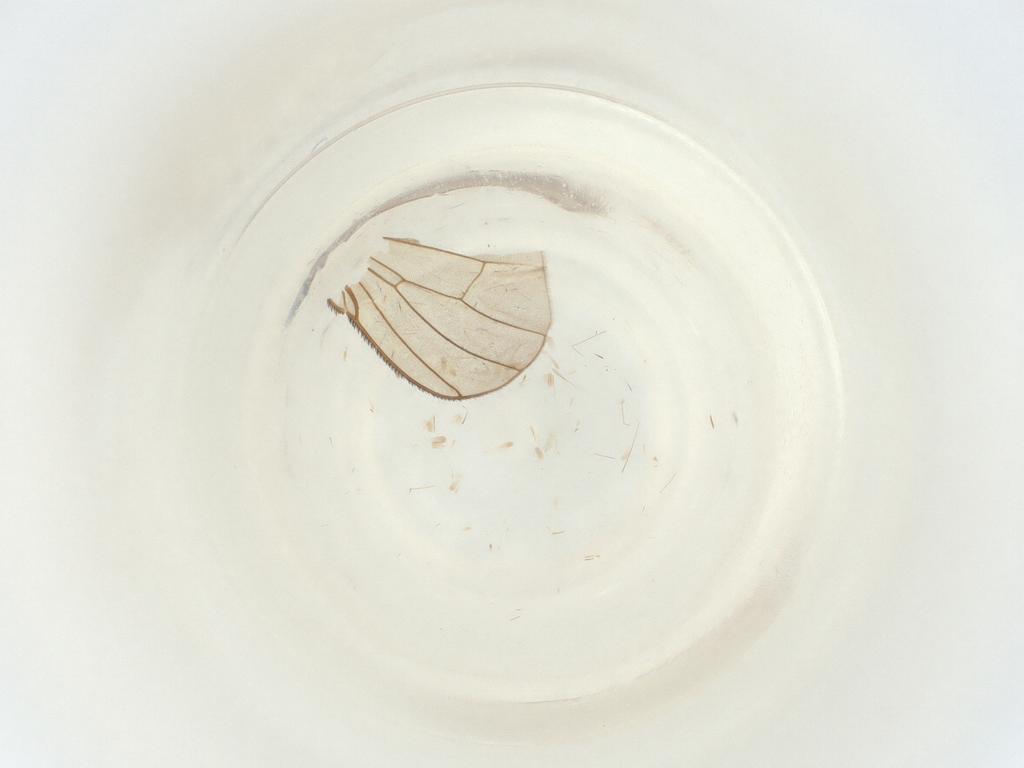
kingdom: Animalia
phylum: Arthropoda
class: Insecta
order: Diptera
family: Muscidae
